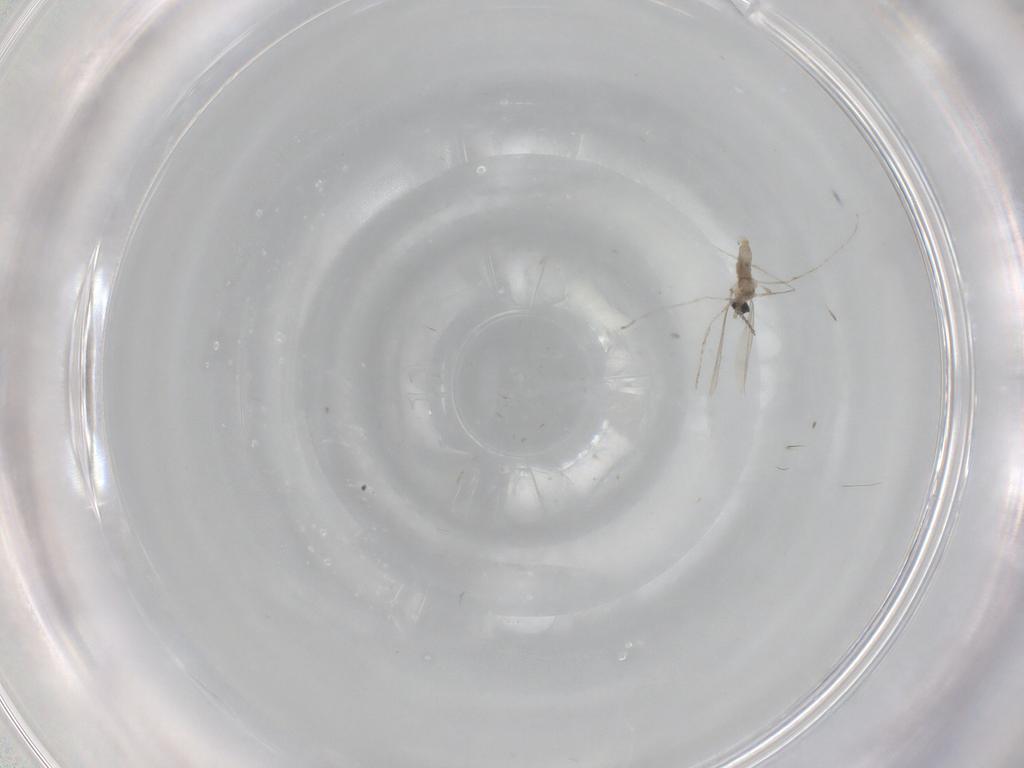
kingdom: Animalia
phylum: Arthropoda
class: Insecta
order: Diptera
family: Cecidomyiidae
